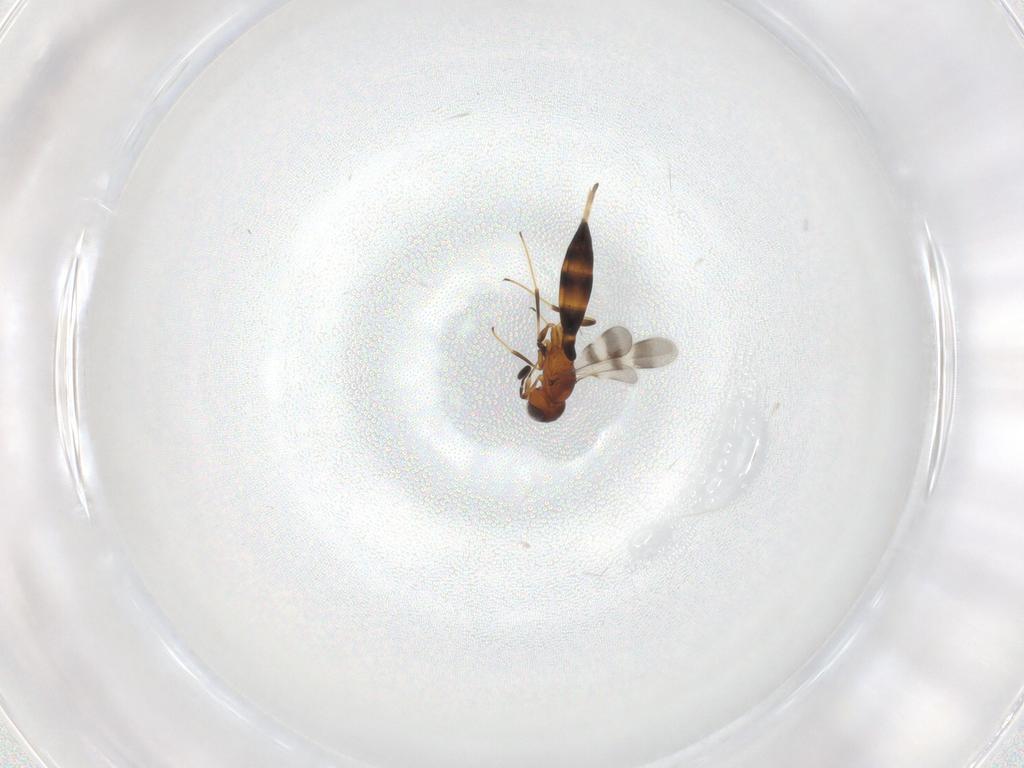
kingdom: Animalia
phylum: Arthropoda
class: Insecta
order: Hymenoptera
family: Scelionidae
